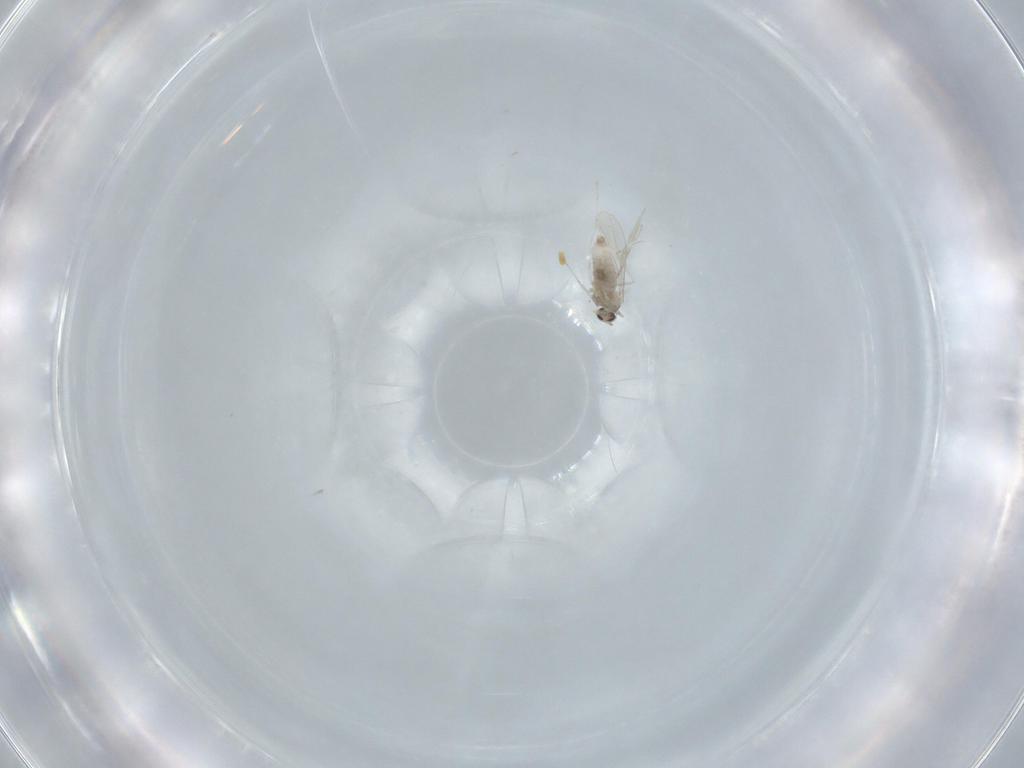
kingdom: Animalia
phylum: Arthropoda
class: Insecta
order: Diptera
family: Cecidomyiidae
